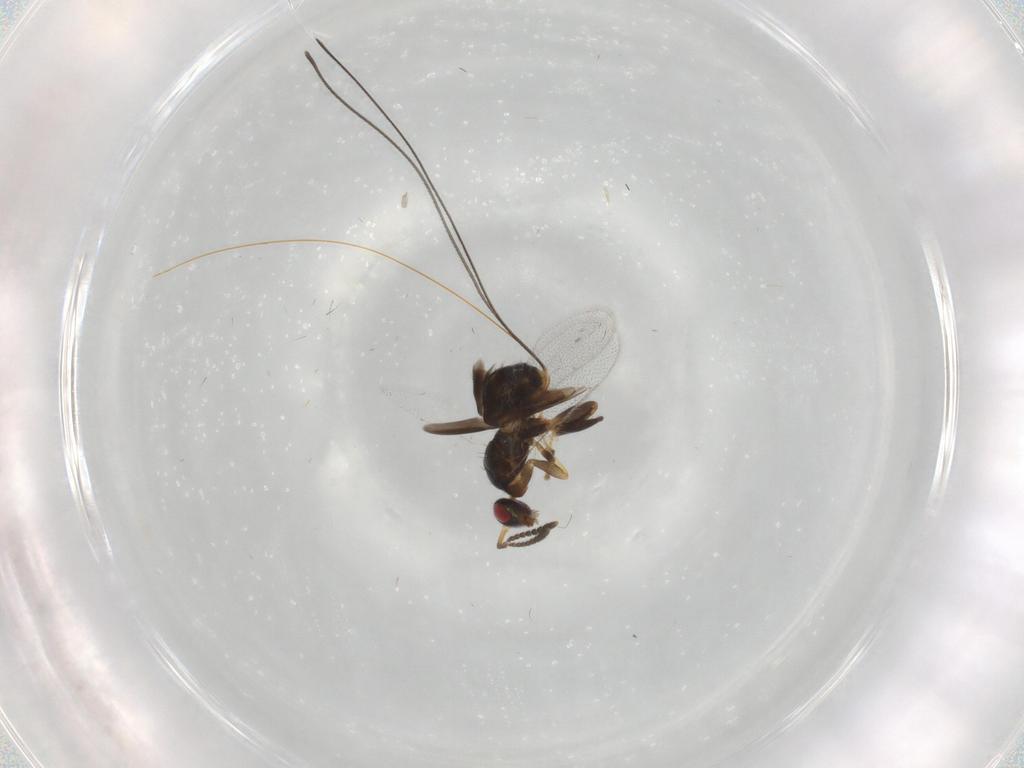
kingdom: Animalia
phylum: Arthropoda
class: Insecta
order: Hymenoptera
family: Torymidae
